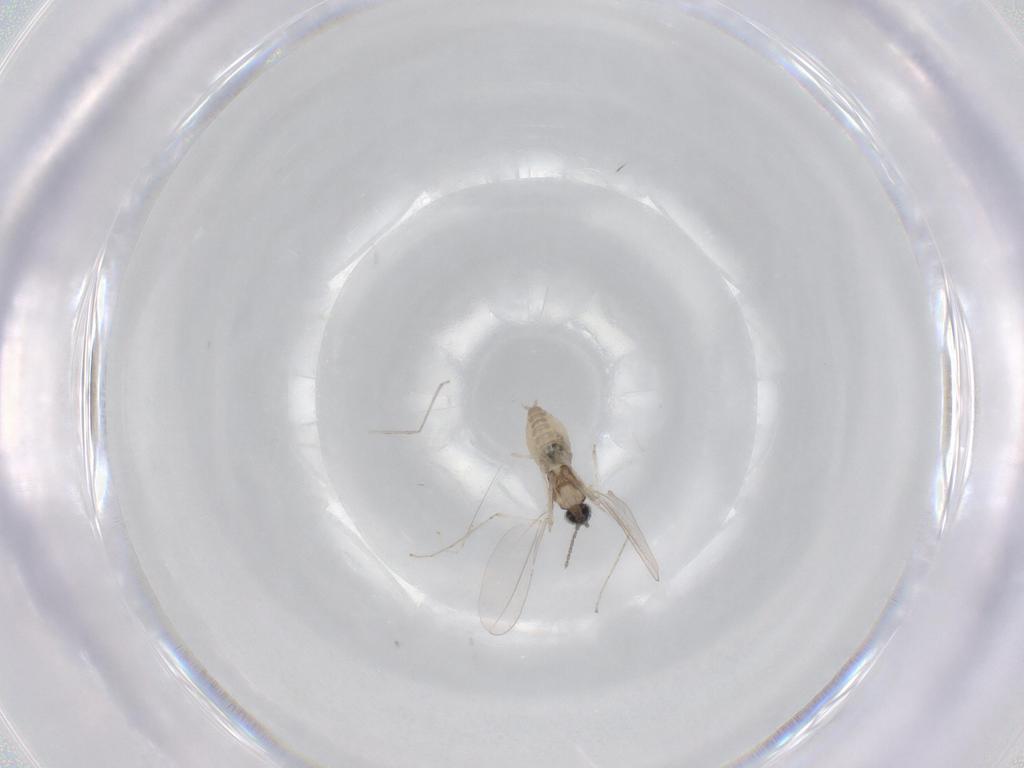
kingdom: Animalia
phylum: Arthropoda
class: Insecta
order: Diptera
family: Cecidomyiidae
